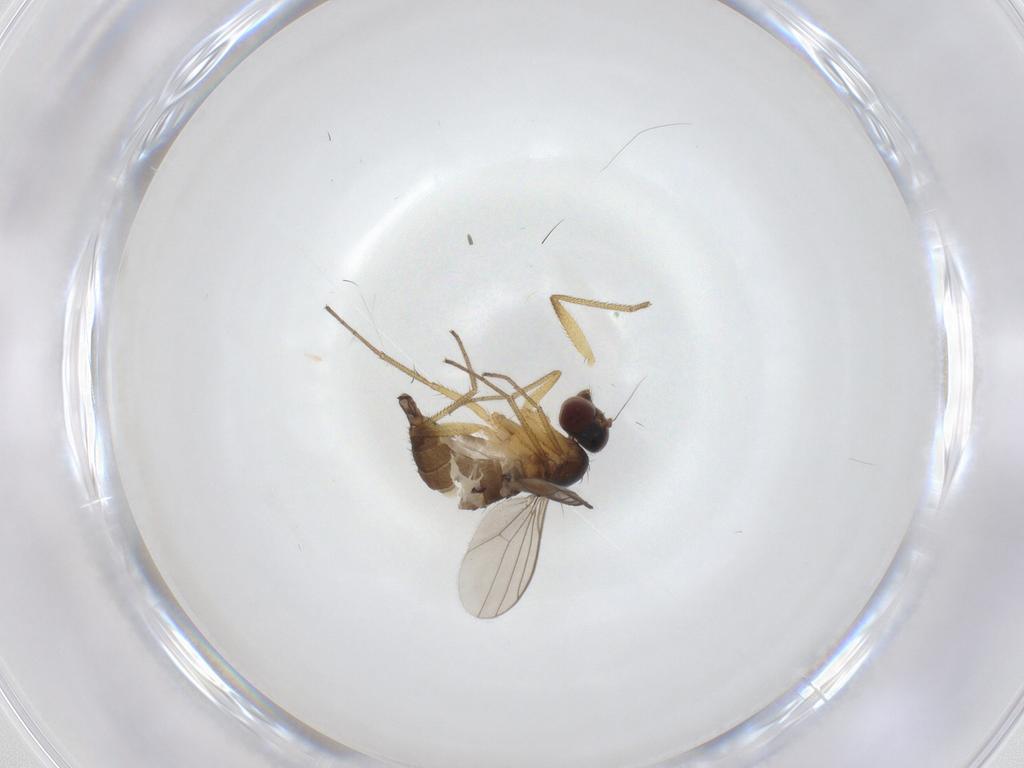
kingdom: Animalia
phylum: Arthropoda
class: Insecta
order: Diptera
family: Dolichopodidae
